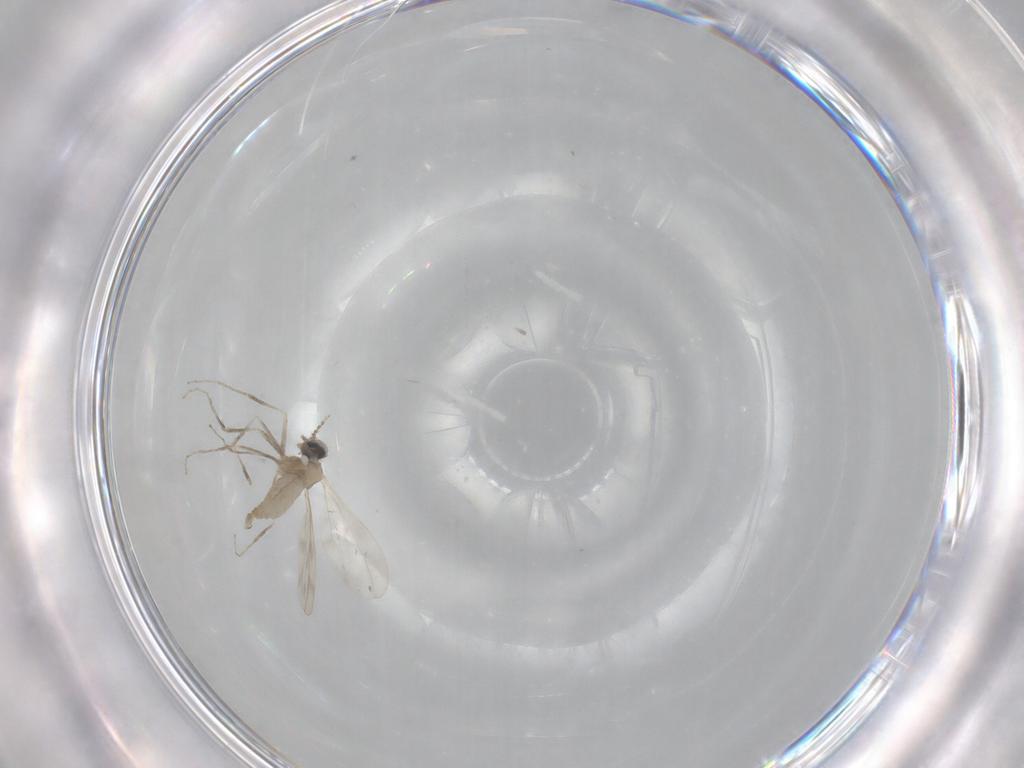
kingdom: Animalia
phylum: Arthropoda
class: Insecta
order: Diptera
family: Cecidomyiidae
